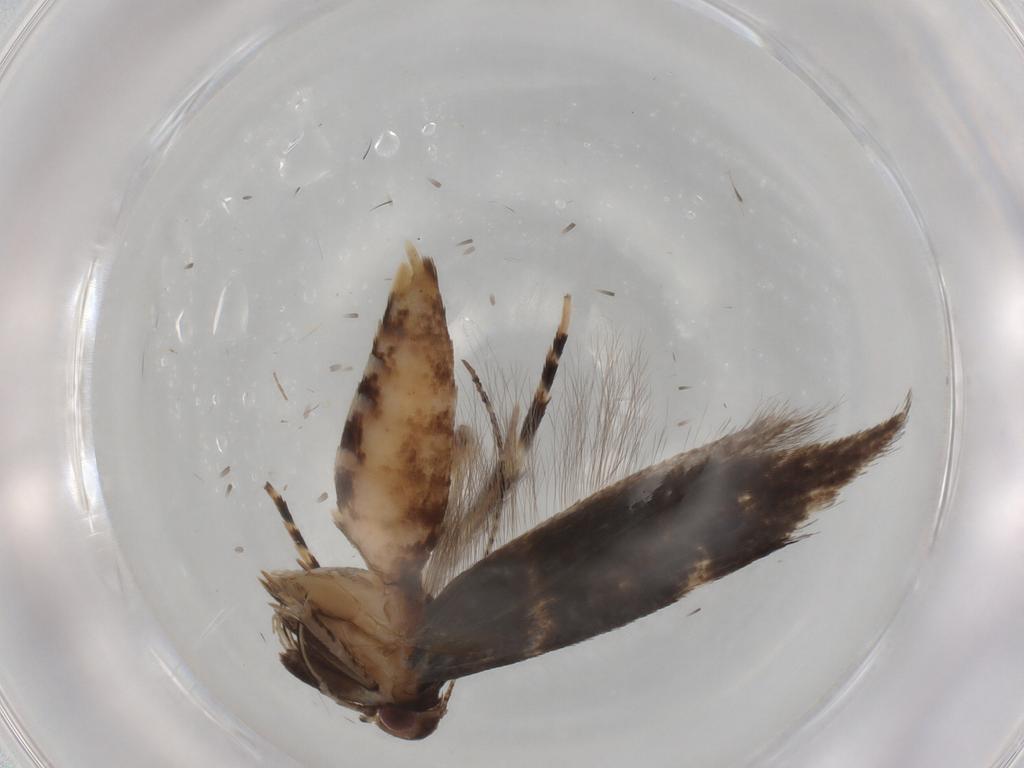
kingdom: Animalia
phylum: Arthropoda
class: Insecta
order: Lepidoptera
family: Cosmopterigidae
